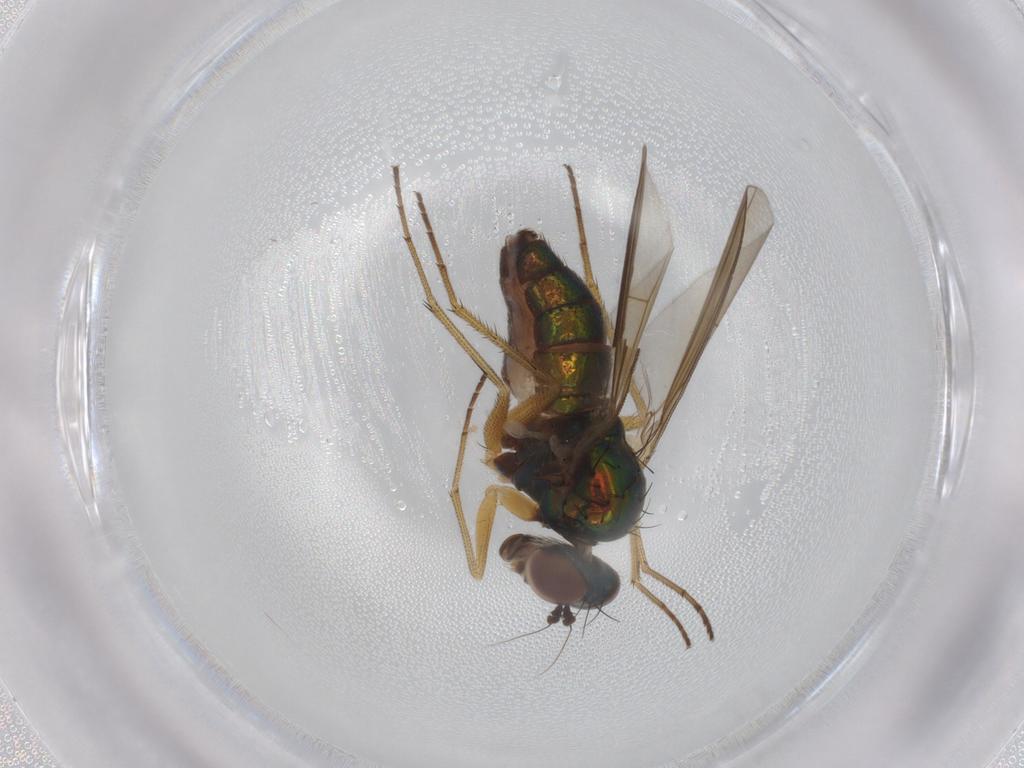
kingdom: Animalia
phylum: Arthropoda
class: Insecta
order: Diptera
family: Dolichopodidae
